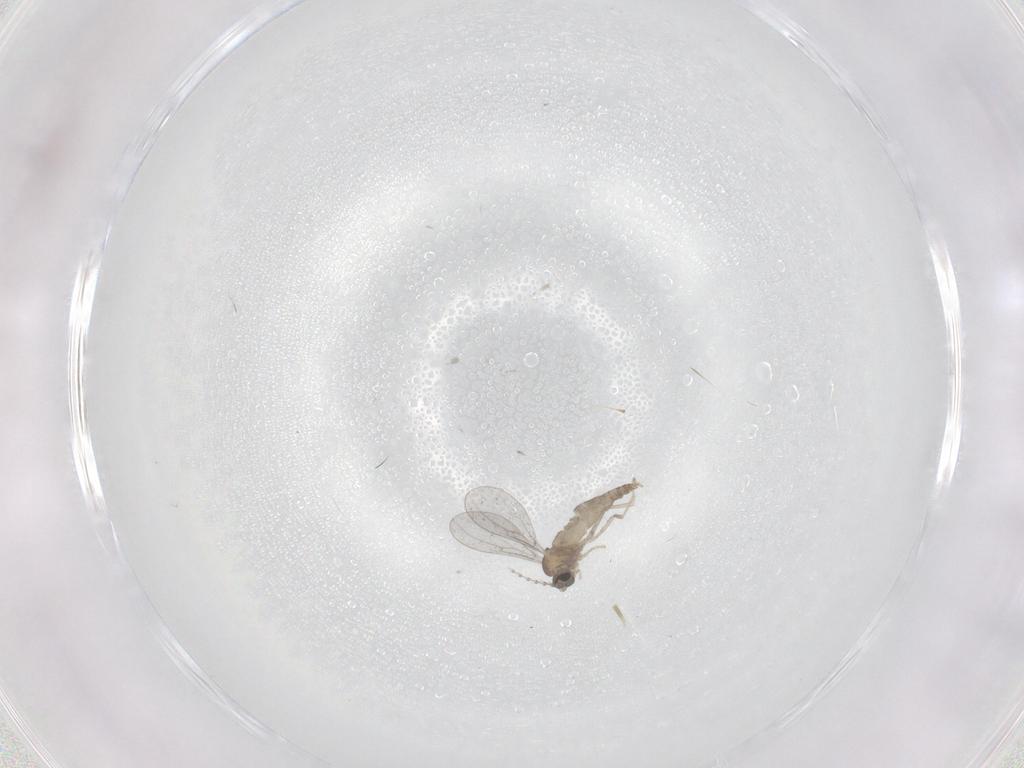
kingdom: Animalia
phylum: Arthropoda
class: Insecta
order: Diptera
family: Cecidomyiidae
